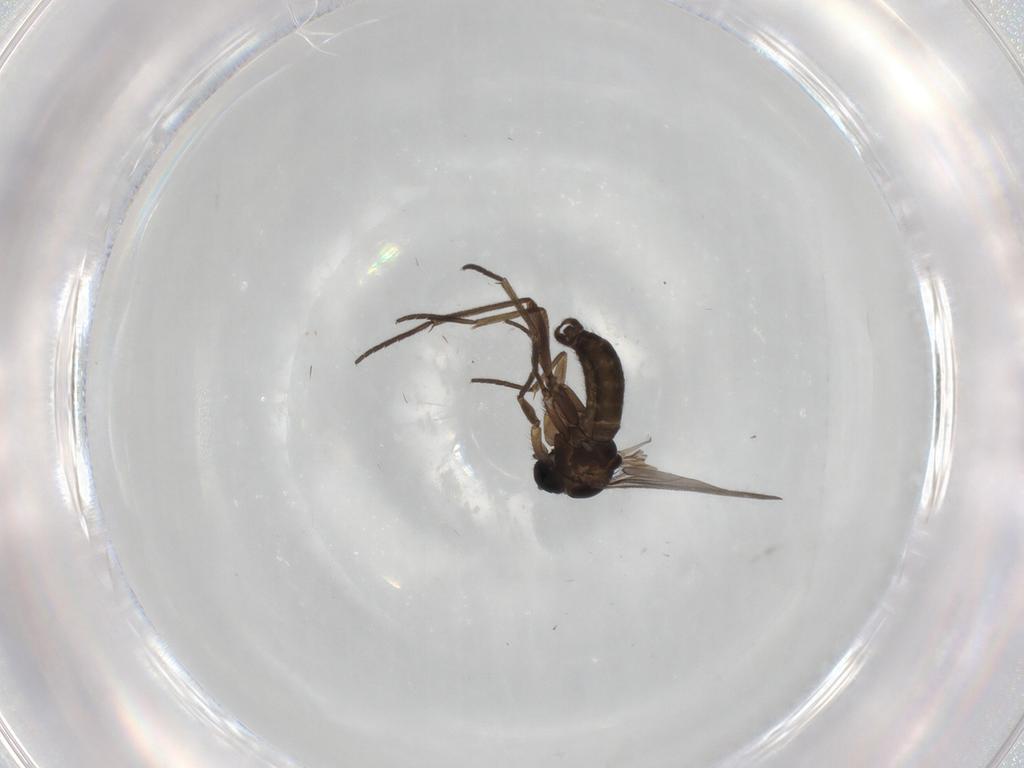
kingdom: Animalia
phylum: Arthropoda
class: Insecta
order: Diptera
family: Sciaridae
